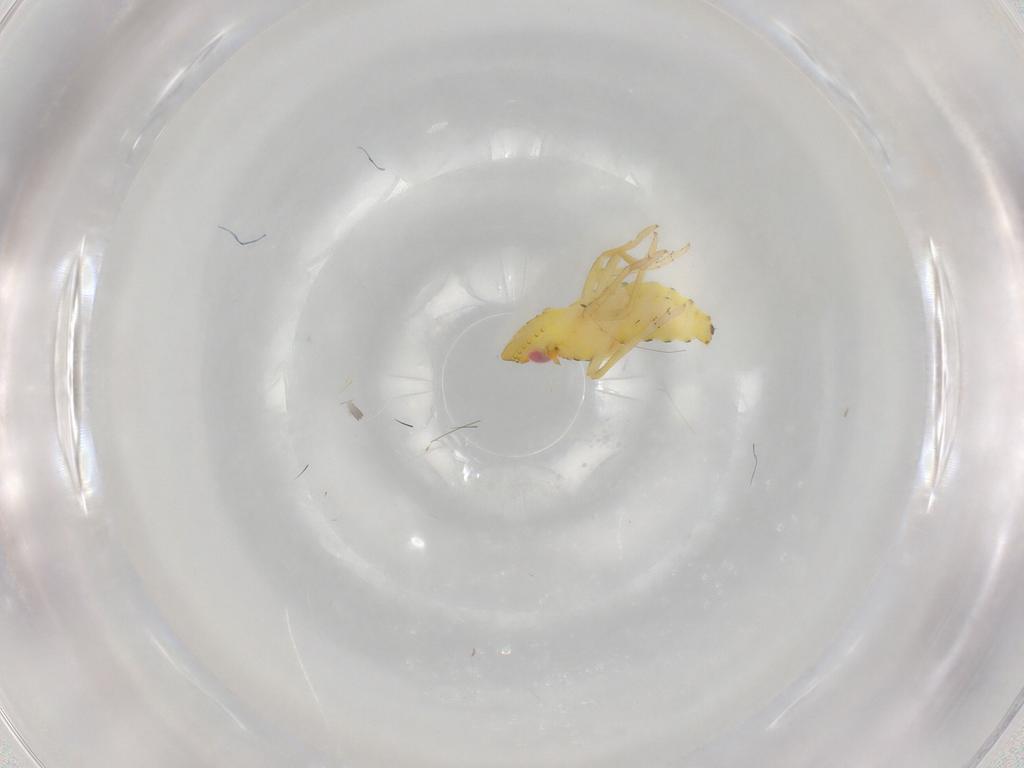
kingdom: Animalia
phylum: Arthropoda
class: Insecta
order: Hemiptera
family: Tropiduchidae
